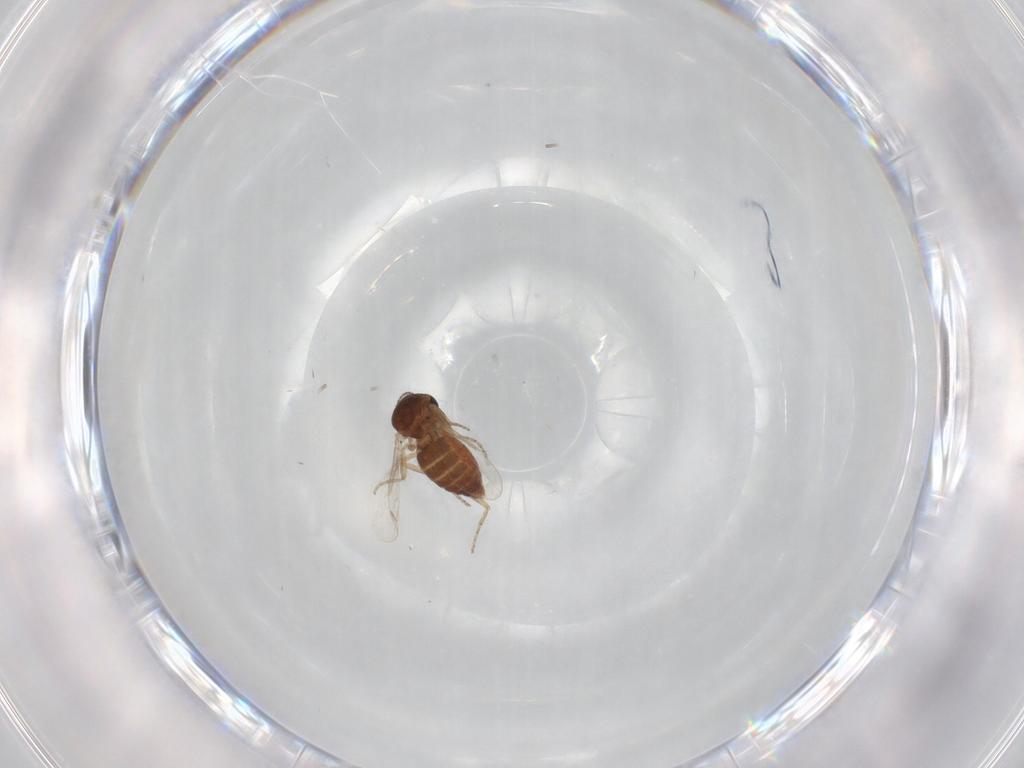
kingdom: Animalia
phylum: Arthropoda
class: Insecta
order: Diptera
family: Ceratopogonidae
